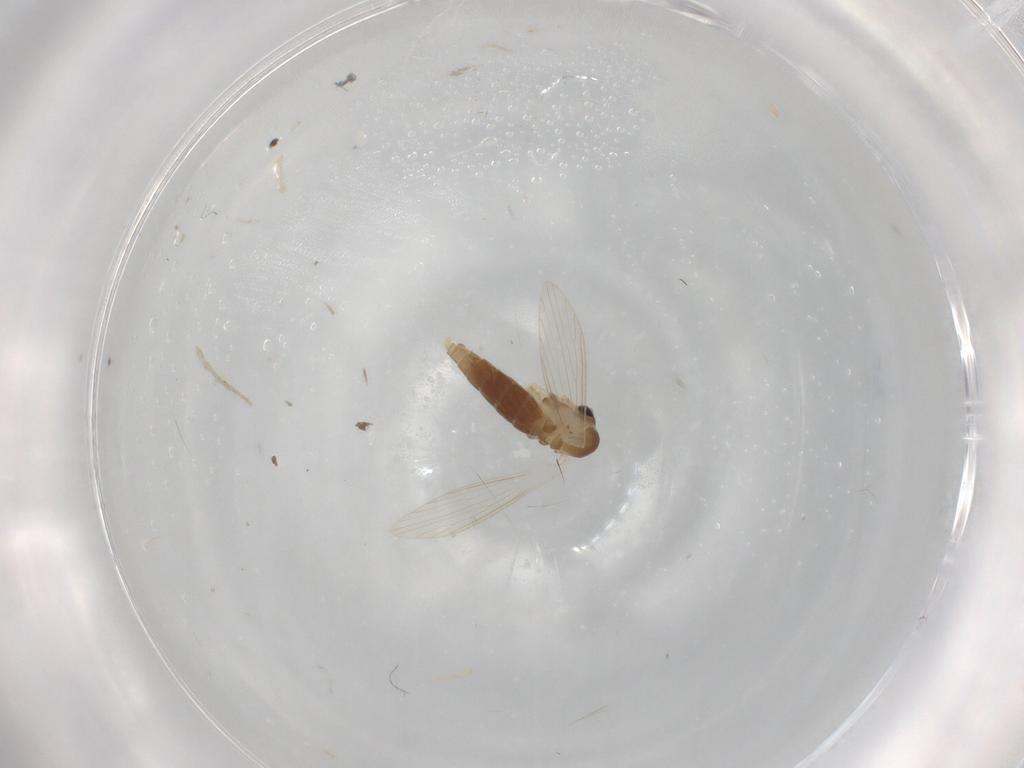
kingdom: Animalia
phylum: Arthropoda
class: Insecta
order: Diptera
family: Psychodidae
